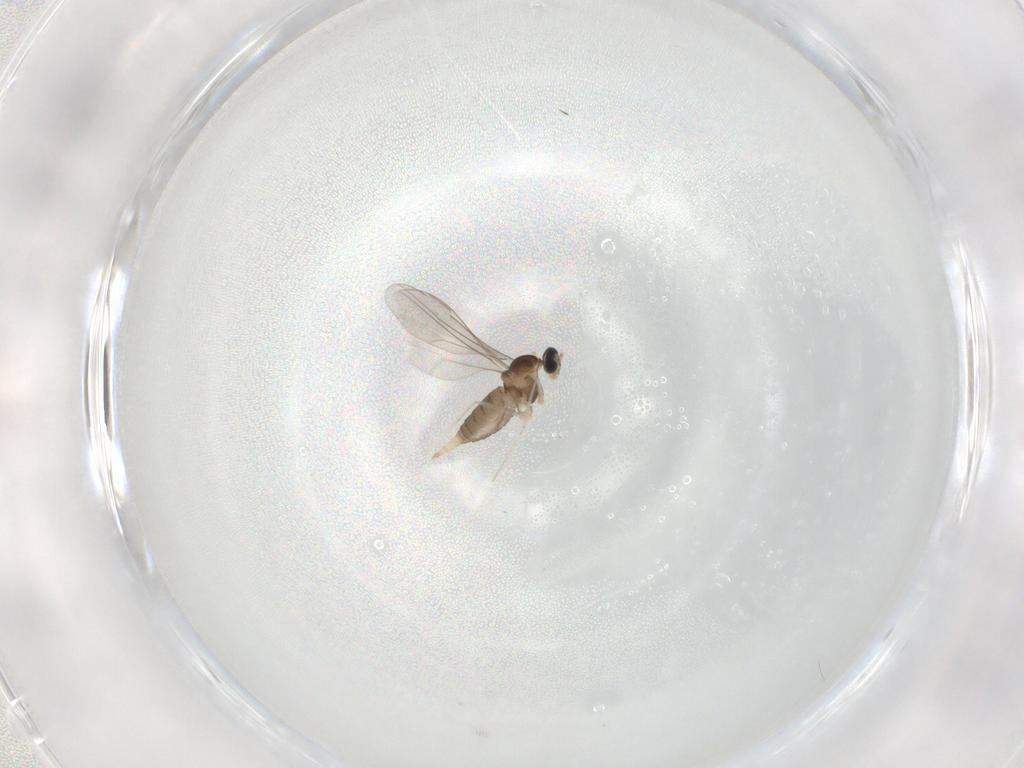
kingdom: Animalia
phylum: Arthropoda
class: Insecta
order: Diptera
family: Cecidomyiidae
